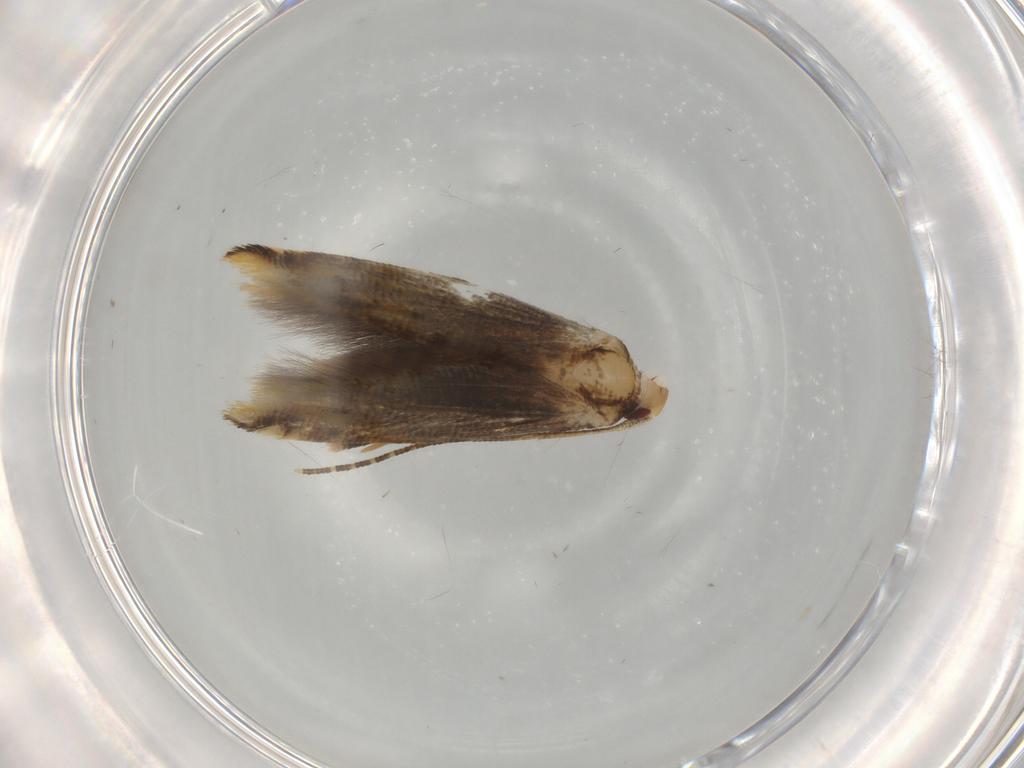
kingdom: Animalia
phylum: Arthropoda
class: Insecta
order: Lepidoptera
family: Momphidae
